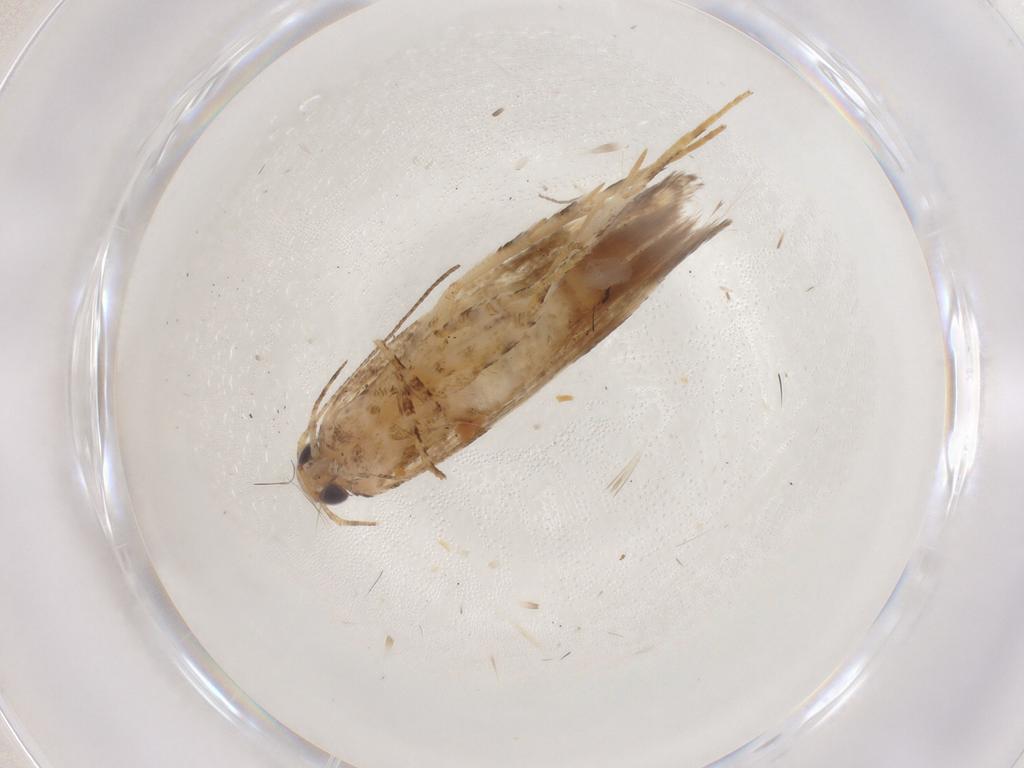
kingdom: Animalia
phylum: Arthropoda
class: Insecta
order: Lepidoptera
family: Gelechiidae
